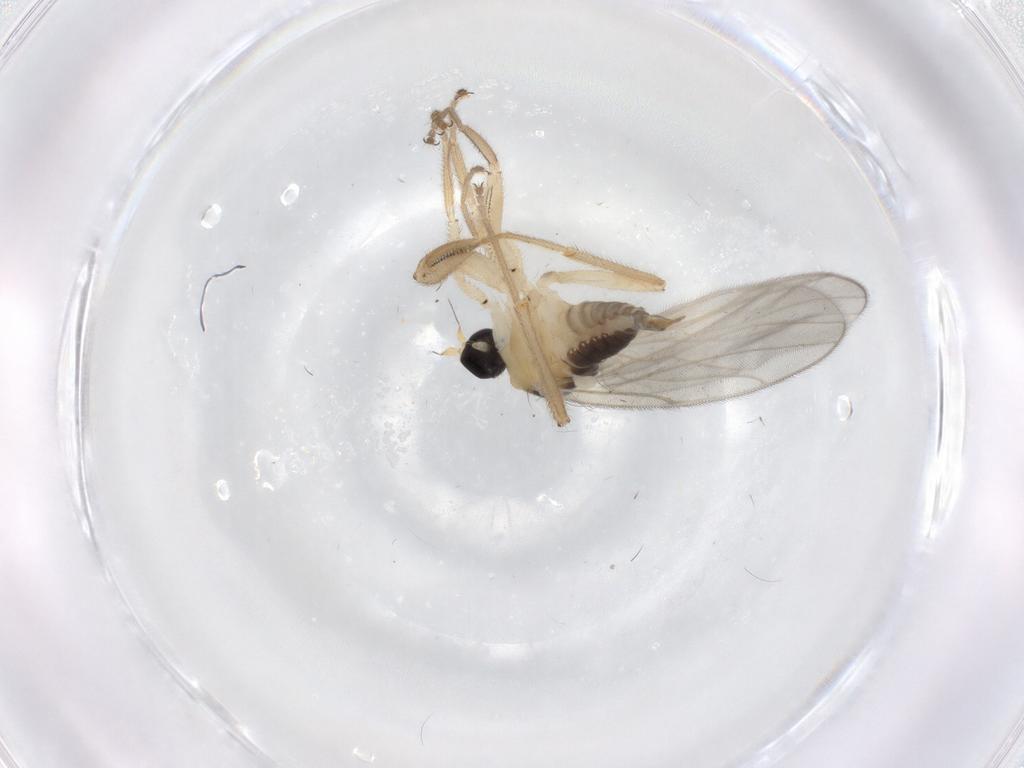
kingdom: Animalia
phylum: Arthropoda
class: Insecta
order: Diptera
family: Hybotidae
